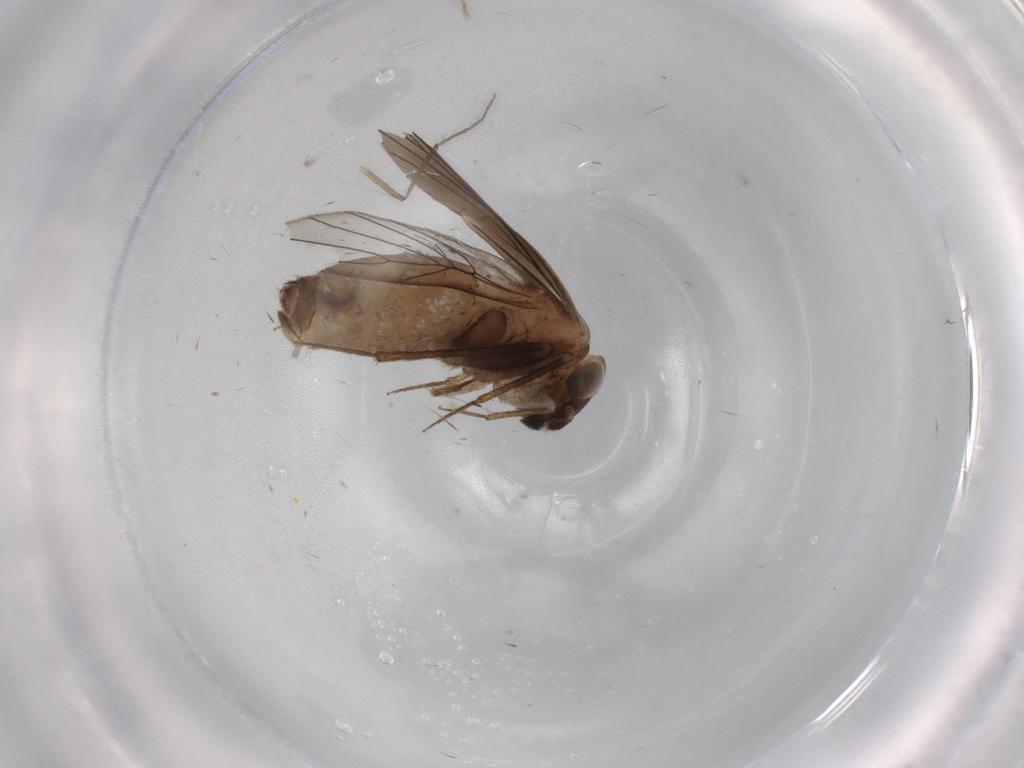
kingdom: Animalia
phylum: Arthropoda
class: Insecta
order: Psocodea
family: Lepidopsocidae
